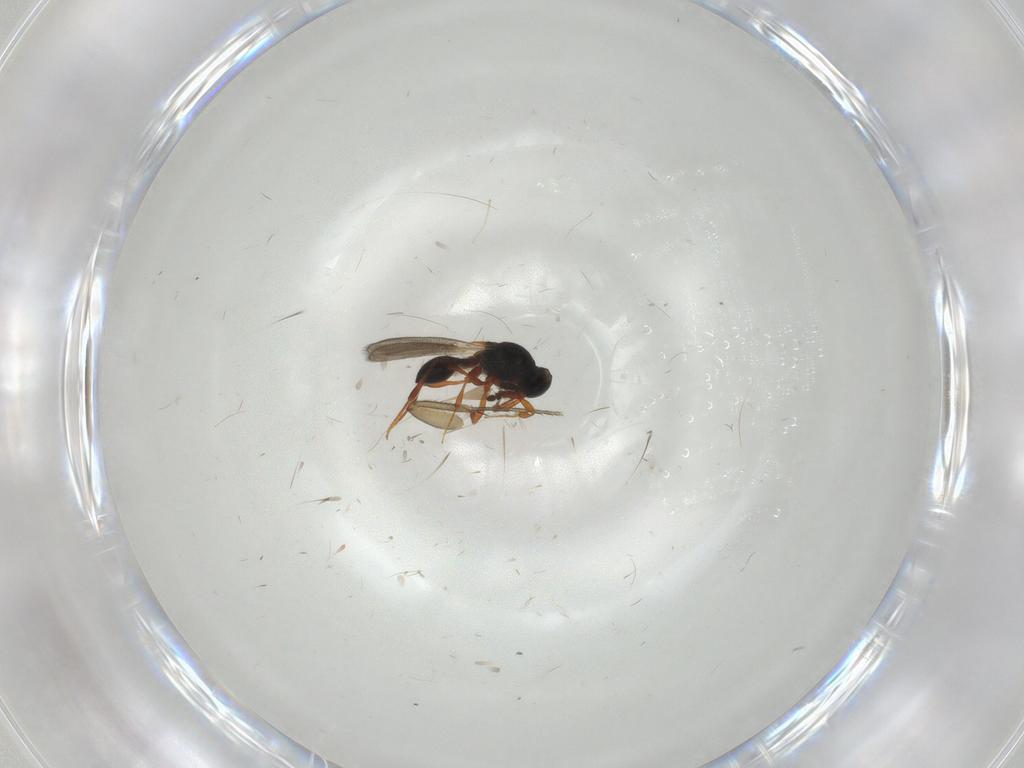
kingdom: Animalia
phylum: Arthropoda
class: Insecta
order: Hymenoptera
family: Platygastridae
